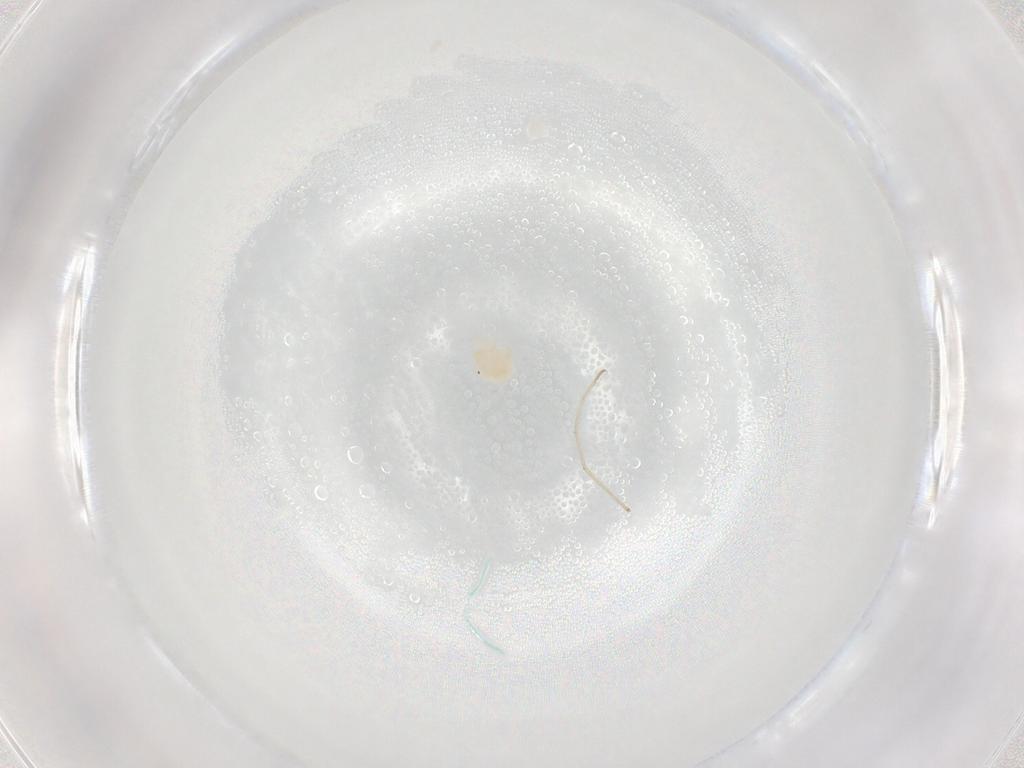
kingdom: Animalia
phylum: Arthropoda
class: Arachnida
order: Trombidiformes
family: Sperchontidae
